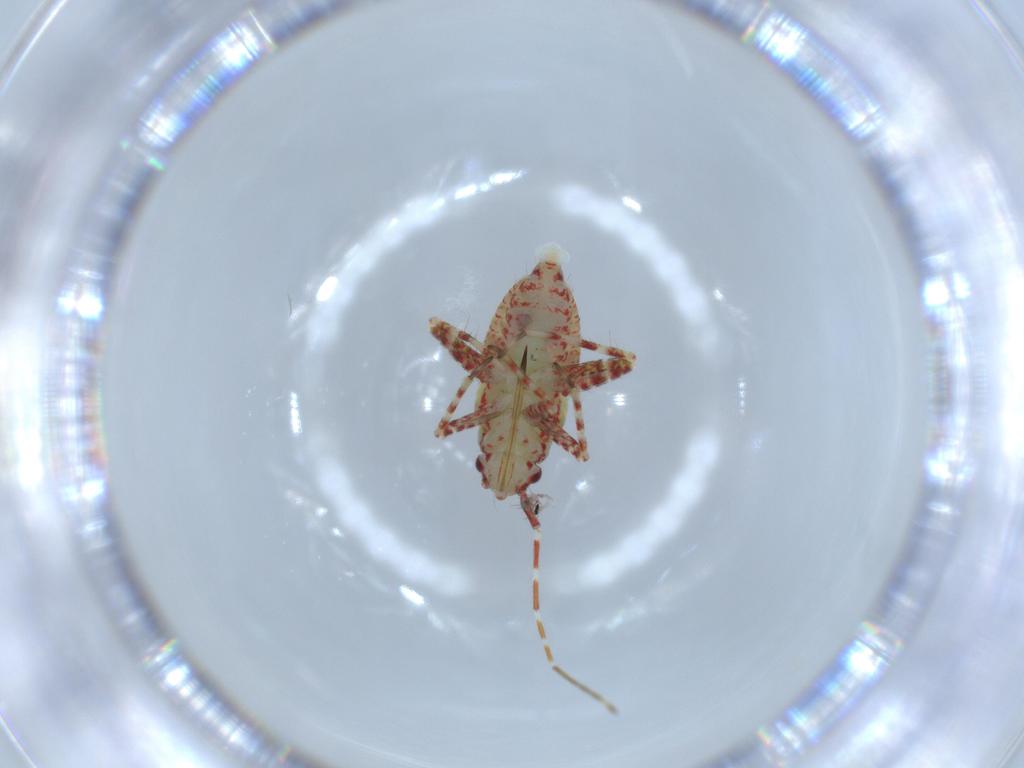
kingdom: Animalia
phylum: Arthropoda
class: Insecta
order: Hemiptera
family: Miridae
